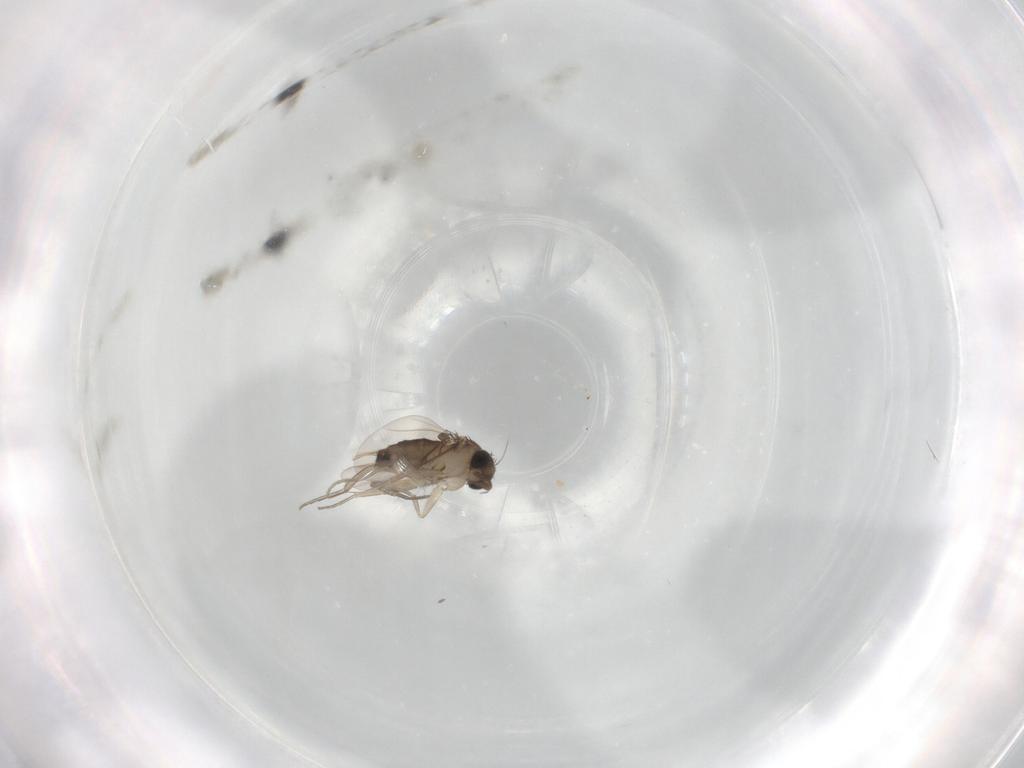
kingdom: Animalia
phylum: Arthropoda
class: Insecta
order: Diptera
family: Phoridae
